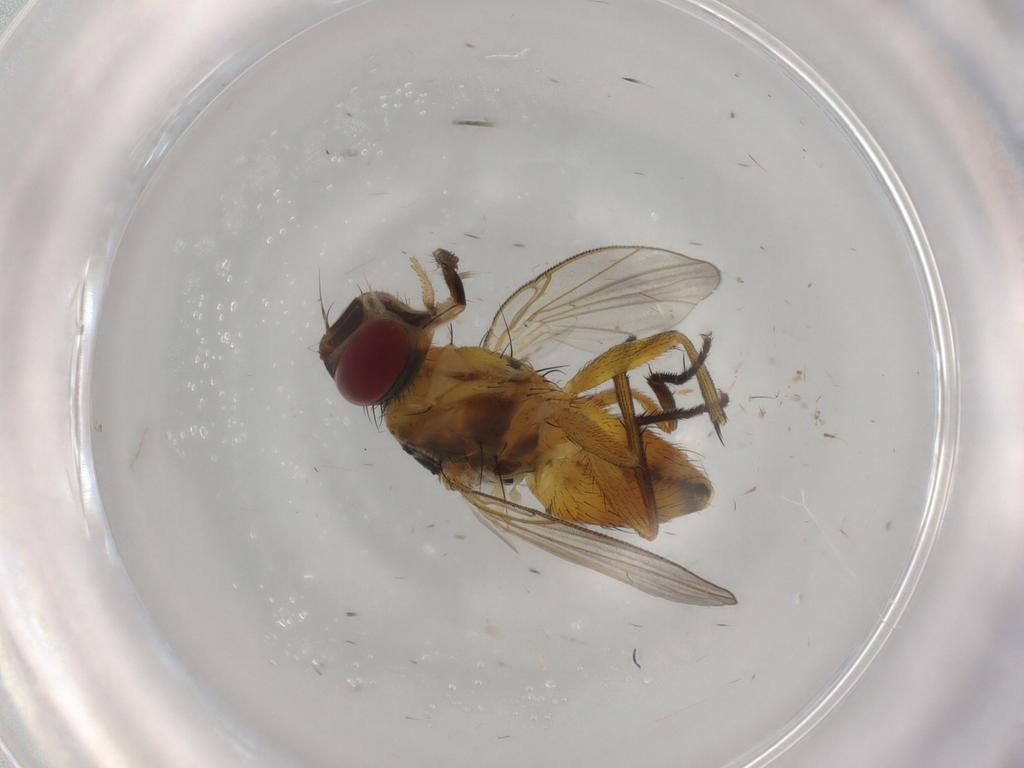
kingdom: Animalia
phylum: Arthropoda
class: Insecta
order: Diptera
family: Muscidae
